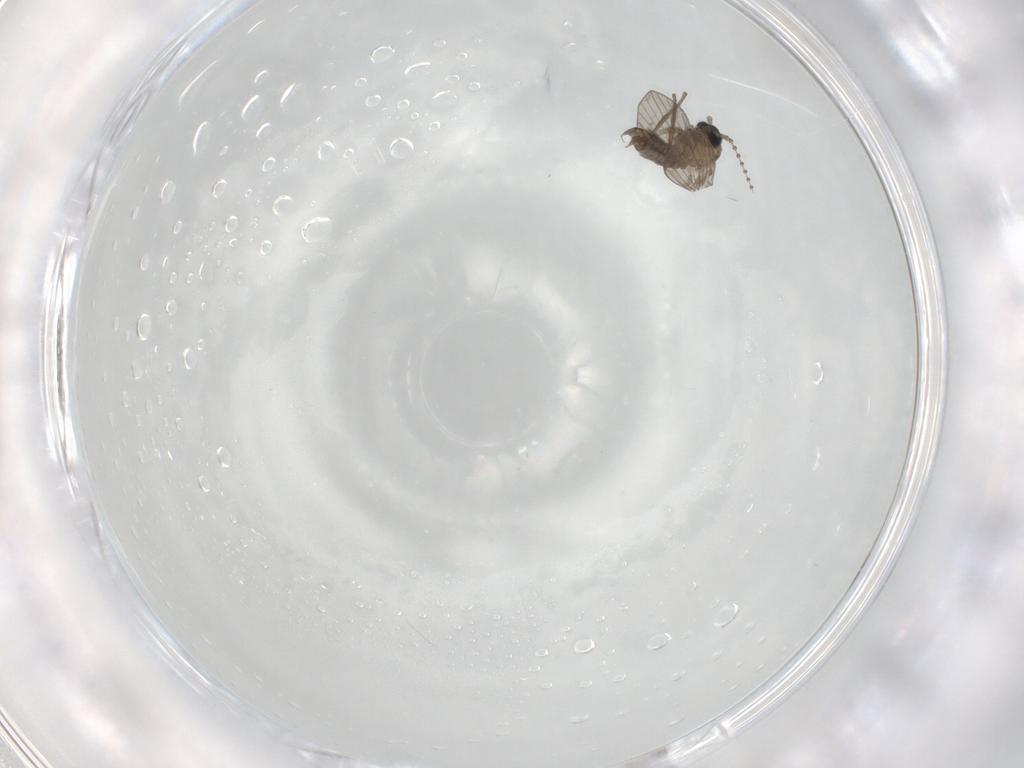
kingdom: Animalia
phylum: Arthropoda
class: Insecta
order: Diptera
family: Psychodidae
